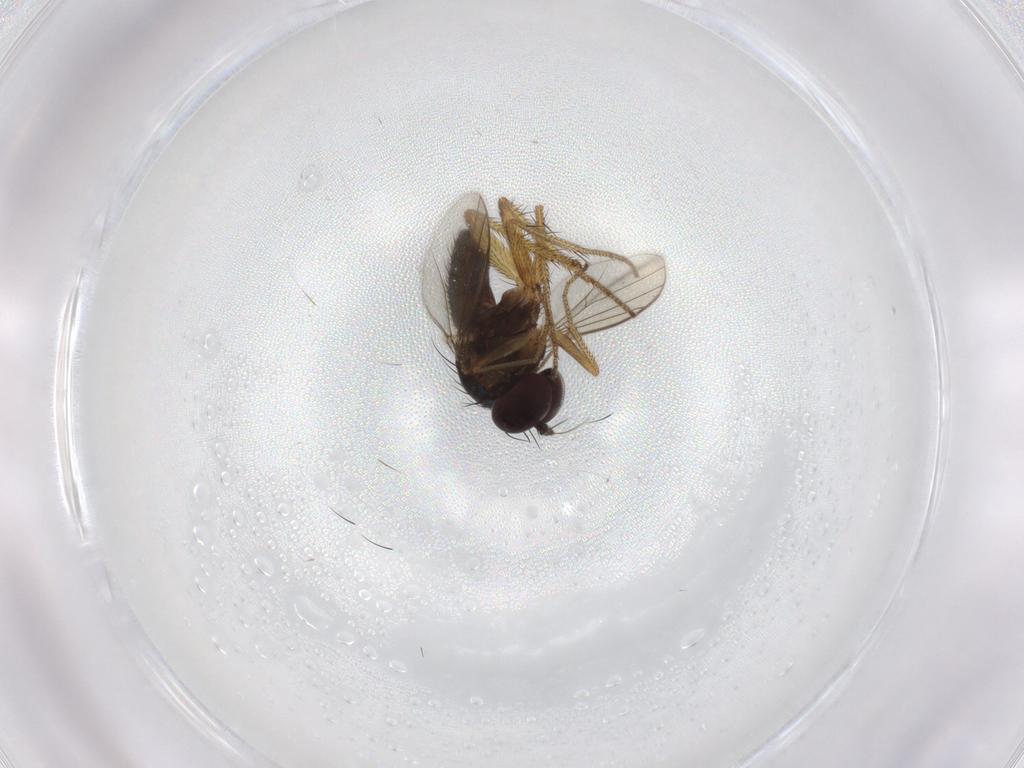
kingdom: Animalia
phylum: Arthropoda
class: Insecta
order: Diptera
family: Dolichopodidae
